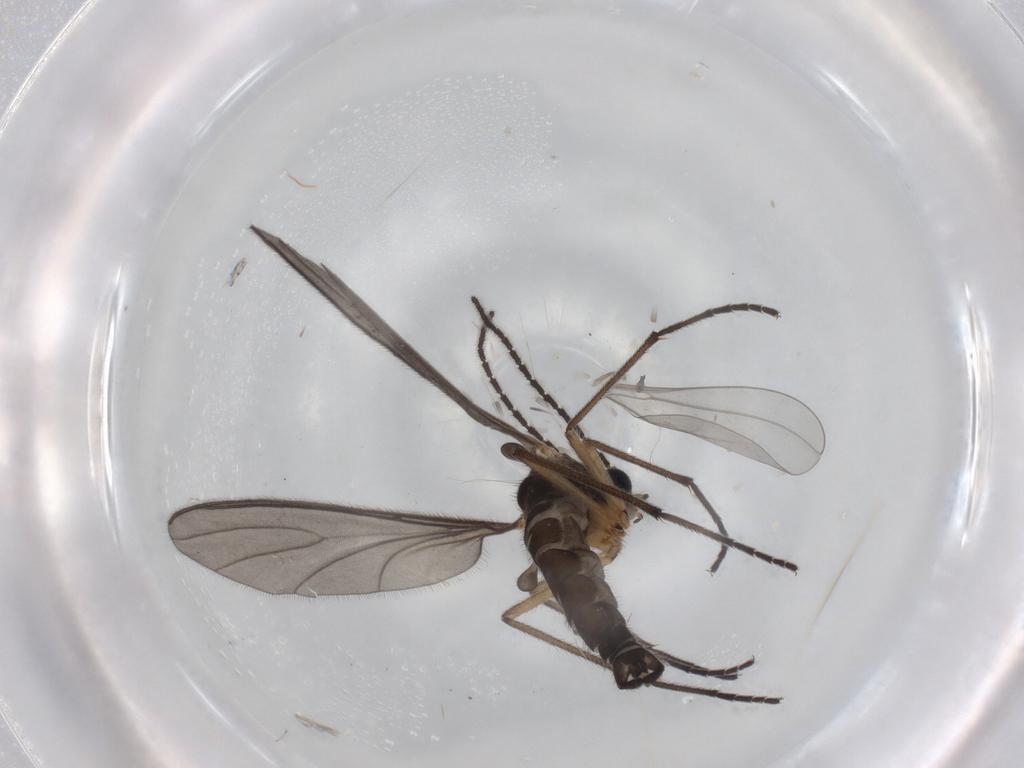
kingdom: Animalia
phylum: Arthropoda
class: Insecta
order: Diptera
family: Sciaridae
